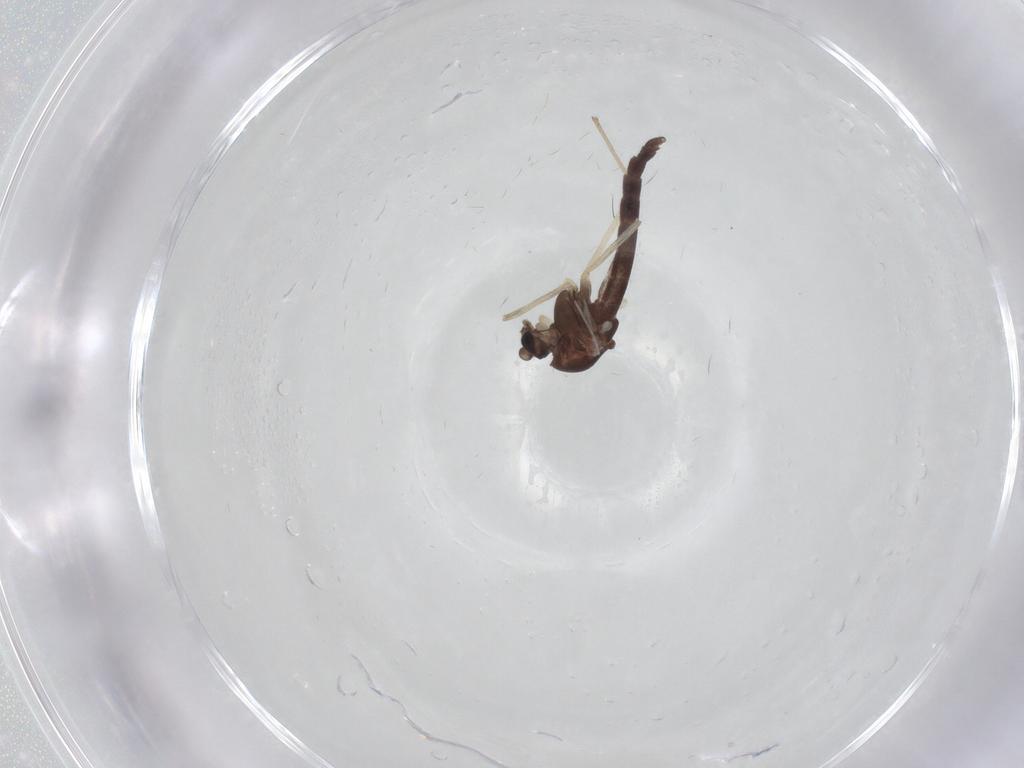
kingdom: Animalia
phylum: Arthropoda
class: Insecta
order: Diptera
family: Chironomidae
